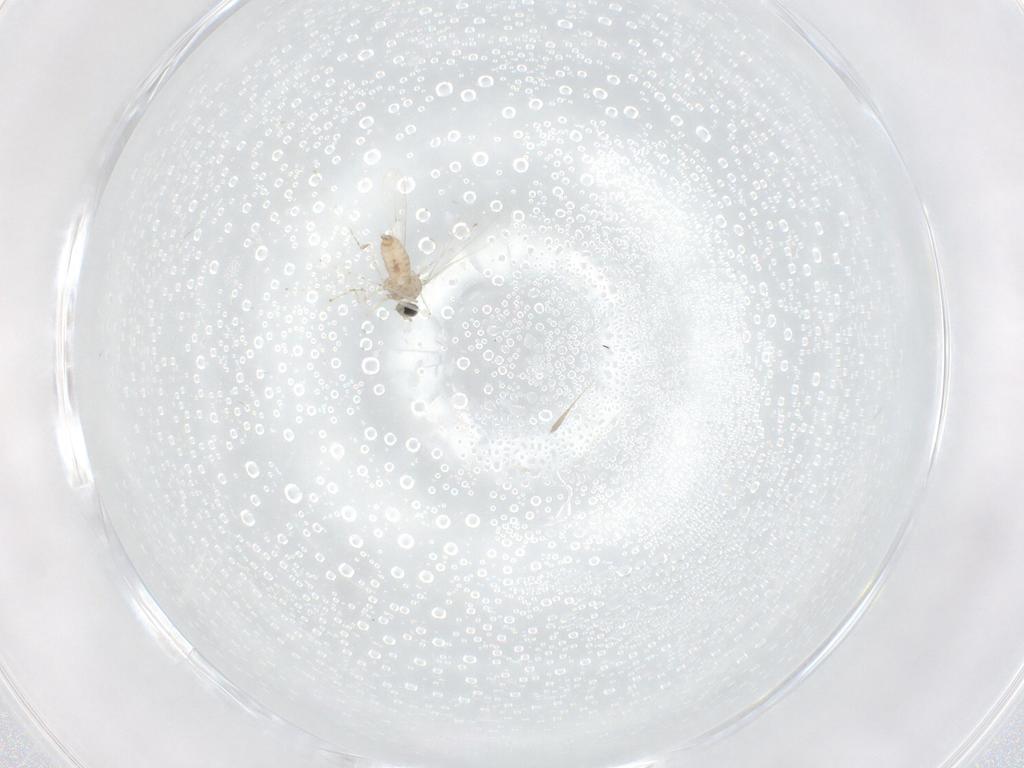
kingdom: Animalia
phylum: Arthropoda
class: Insecta
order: Diptera
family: Cecidomyiidae
